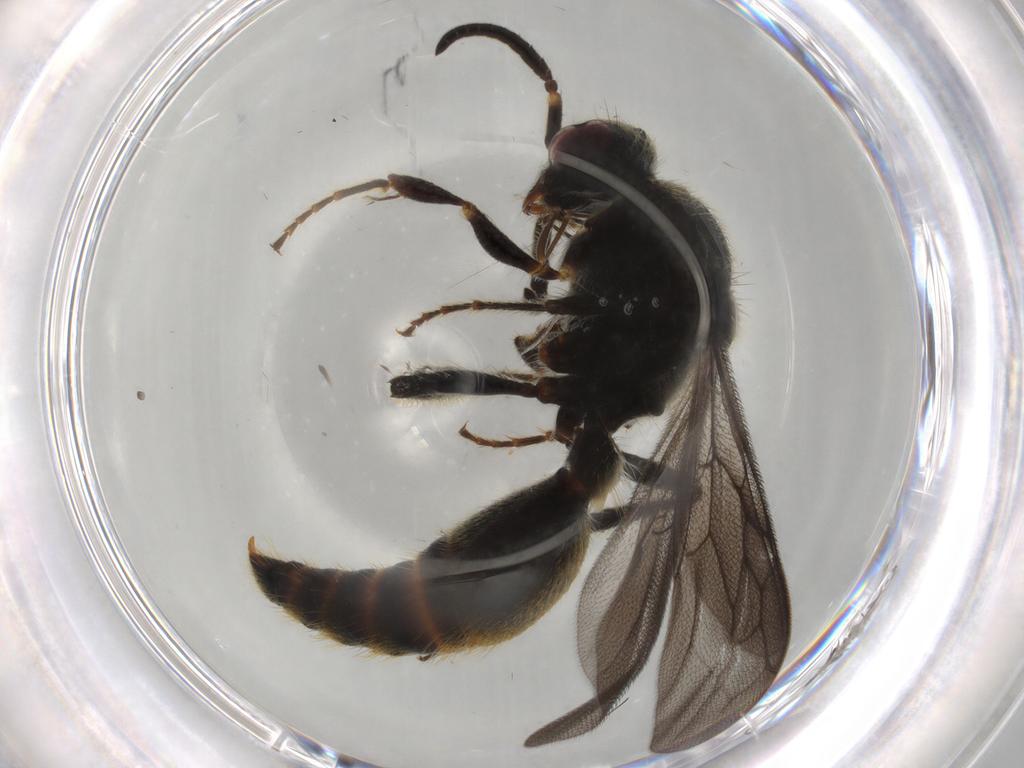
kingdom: Animalia
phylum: Arthropoda
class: Insecta
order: Hymenoptera
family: Mutillidae
